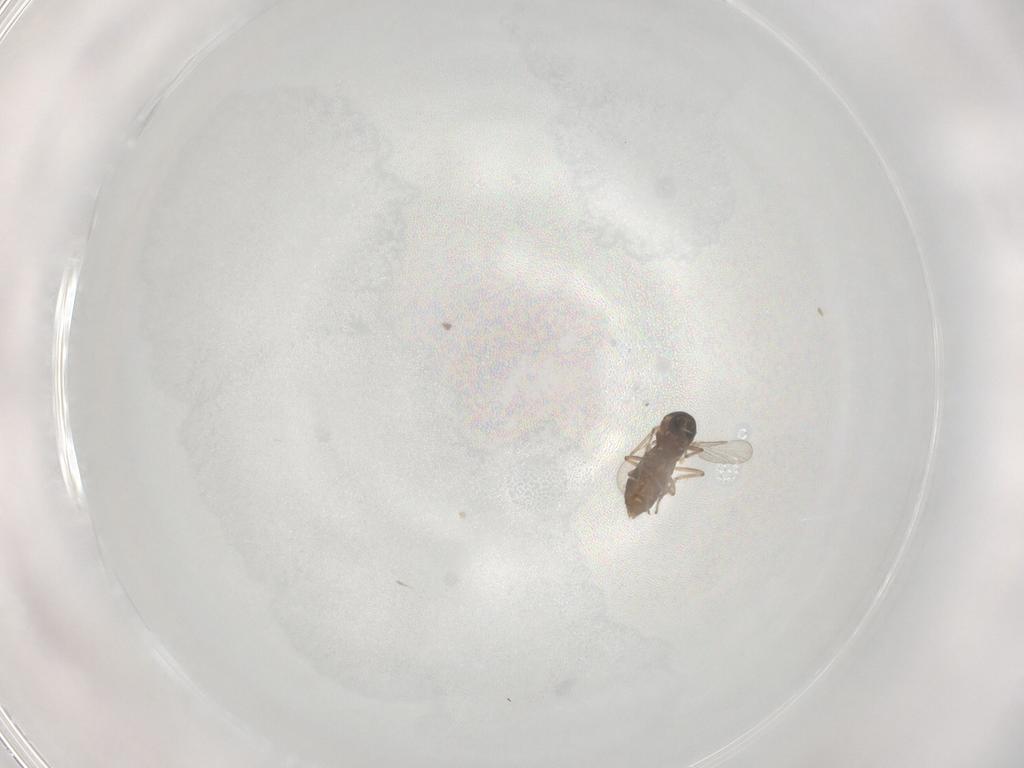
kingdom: Animalia
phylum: Arthropoda
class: Insecta
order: Diptera
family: Ceratopogonidae
